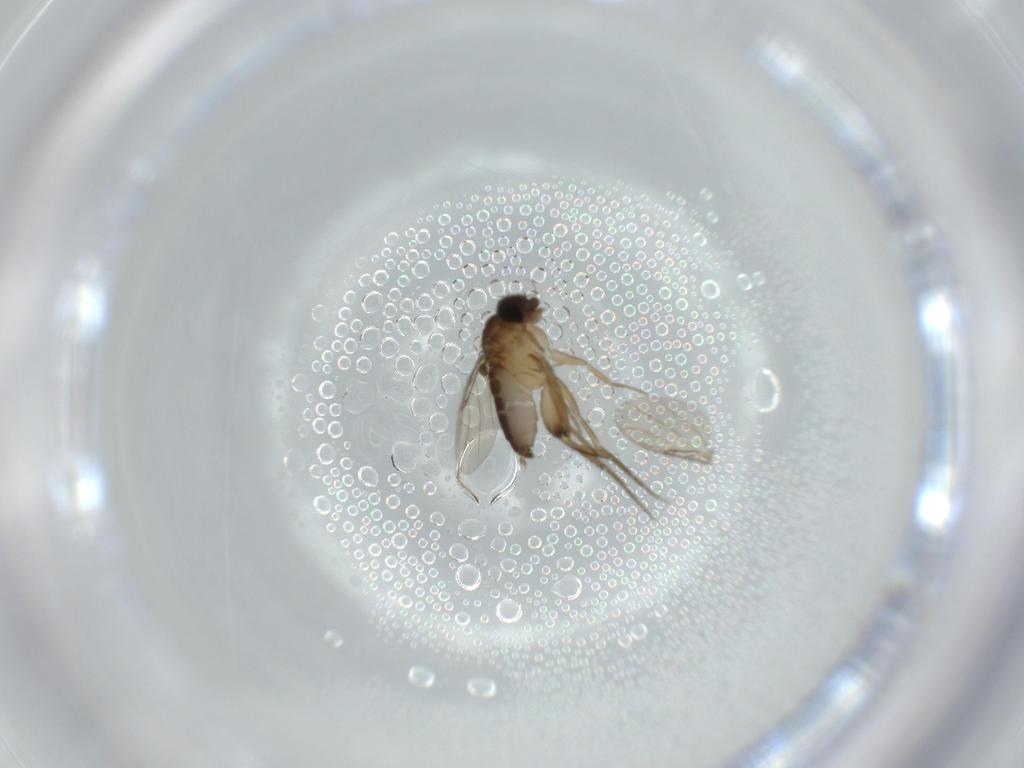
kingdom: Animalia
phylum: Arthropoda
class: Insecta
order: Diptera
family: Phoridae
